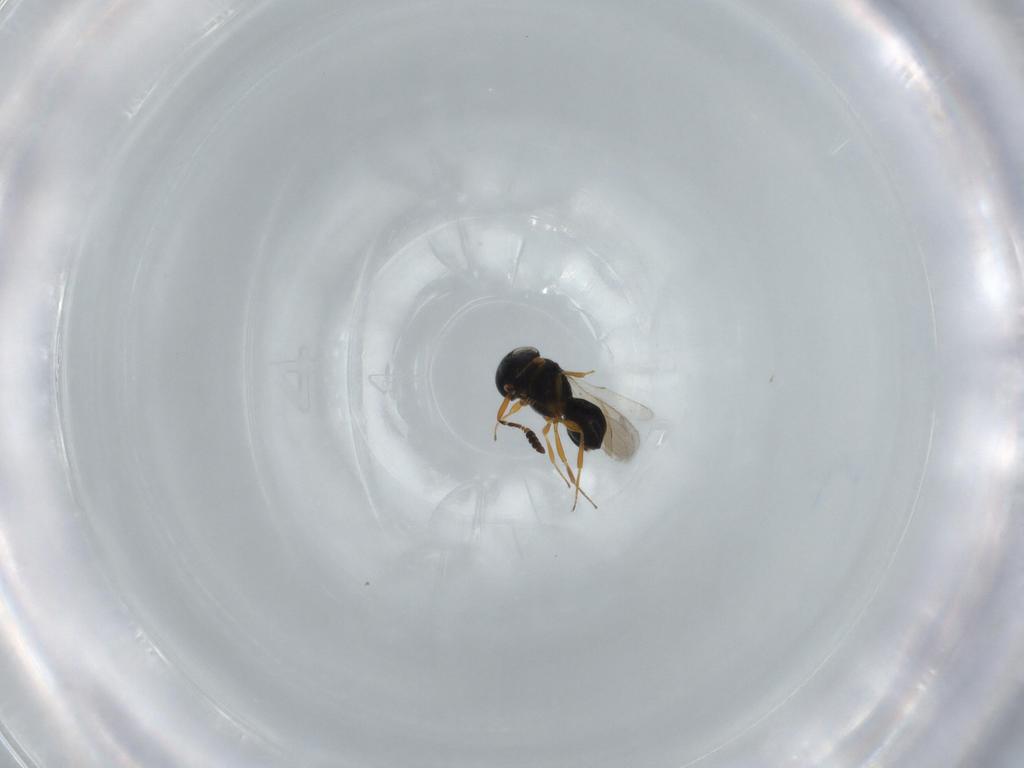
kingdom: Animalia
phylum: Arthropoda
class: Insecta
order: Hymenoptera
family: Scelionidae
